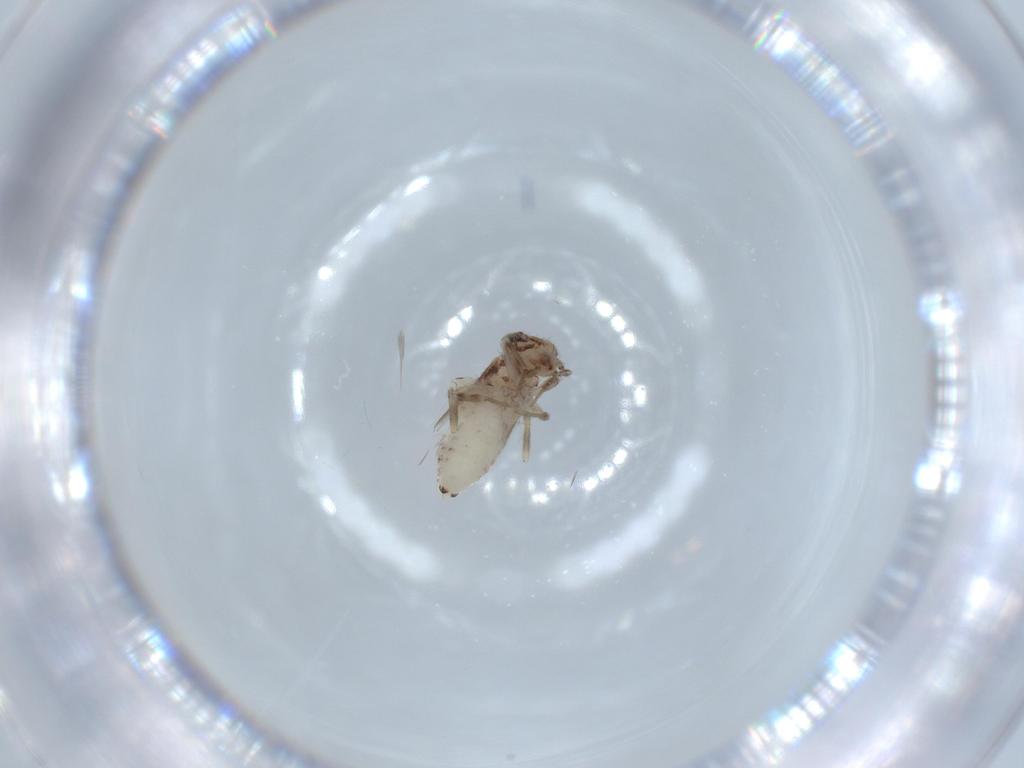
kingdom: Animalia
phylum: Arthropoda
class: Insecta
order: Psocodea
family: Lepidopsocidae
